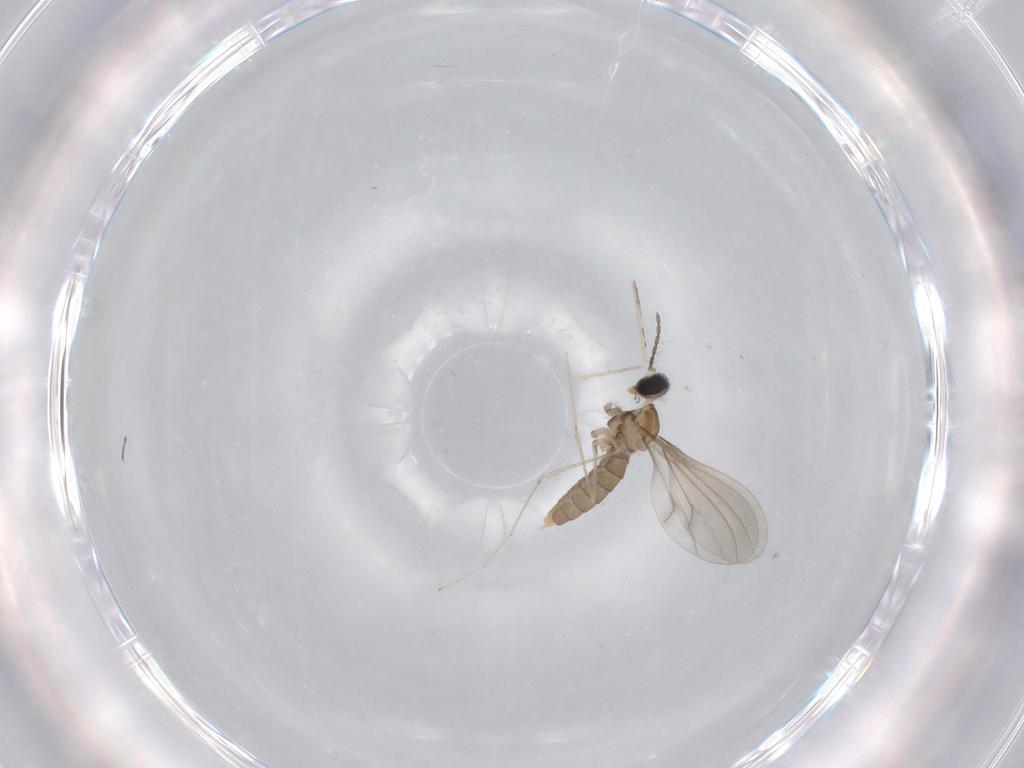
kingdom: Animalia
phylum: Arthropoda
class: Insecta
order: Diptera
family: Cecidomyiidae
